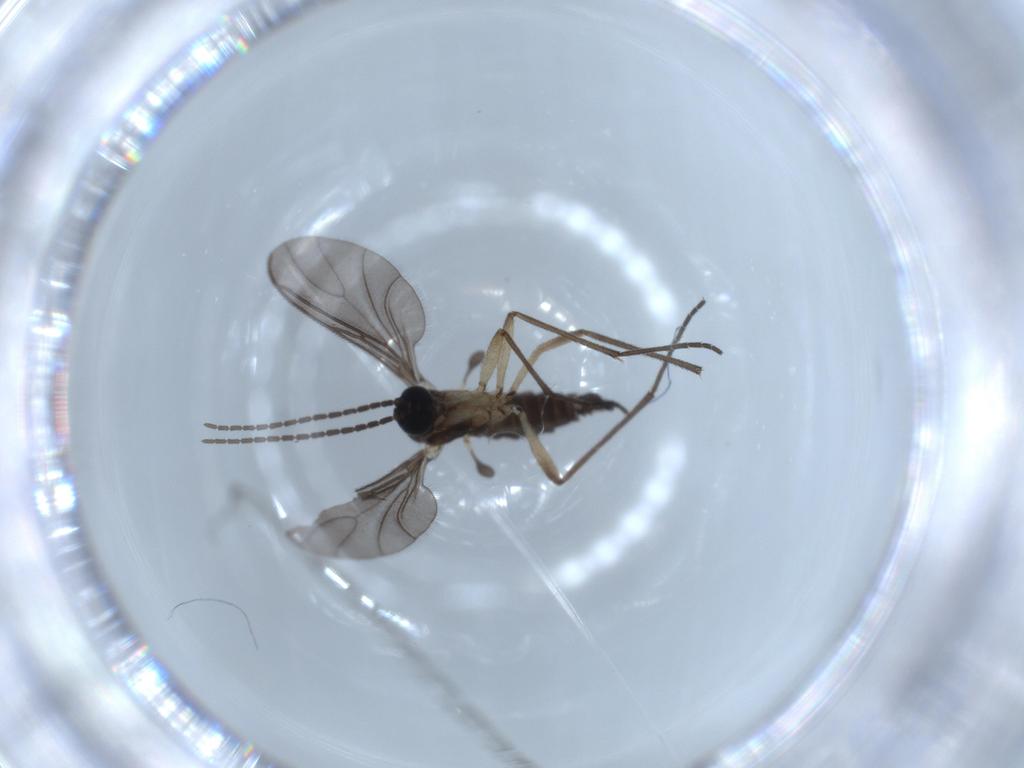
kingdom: Animalia
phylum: Arthropoda
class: Insecta
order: Diptera
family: Sciaridae
